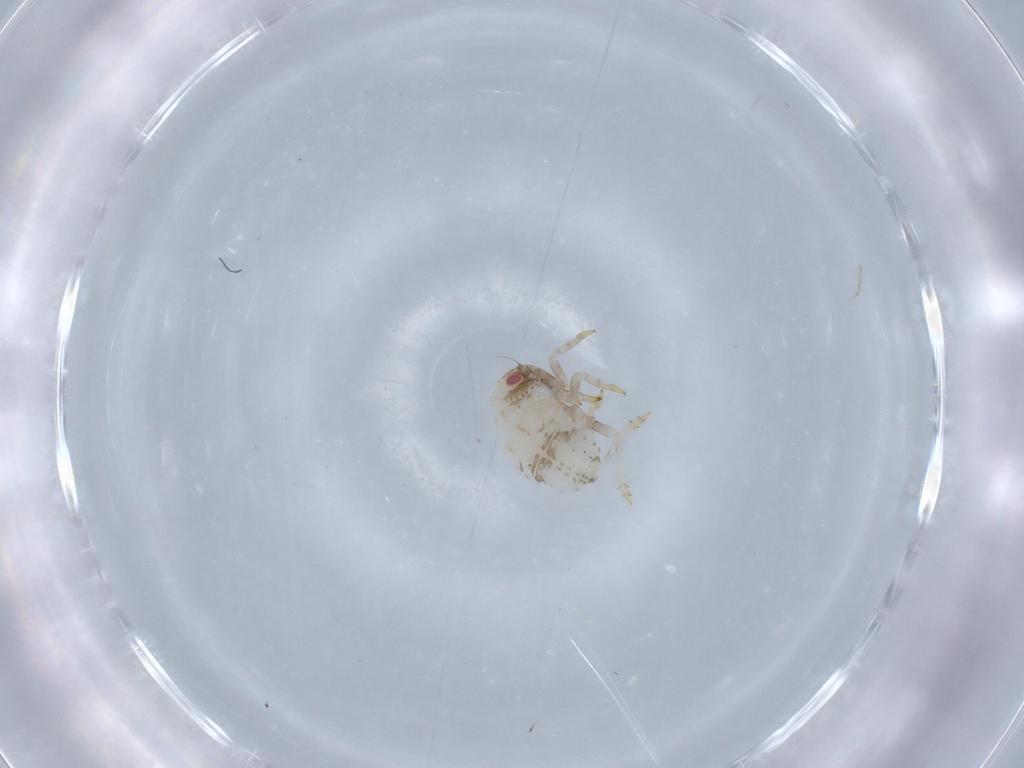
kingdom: Animalia
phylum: Arthropoda
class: Insecta
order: Hemiptera
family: Acanaloniidae
